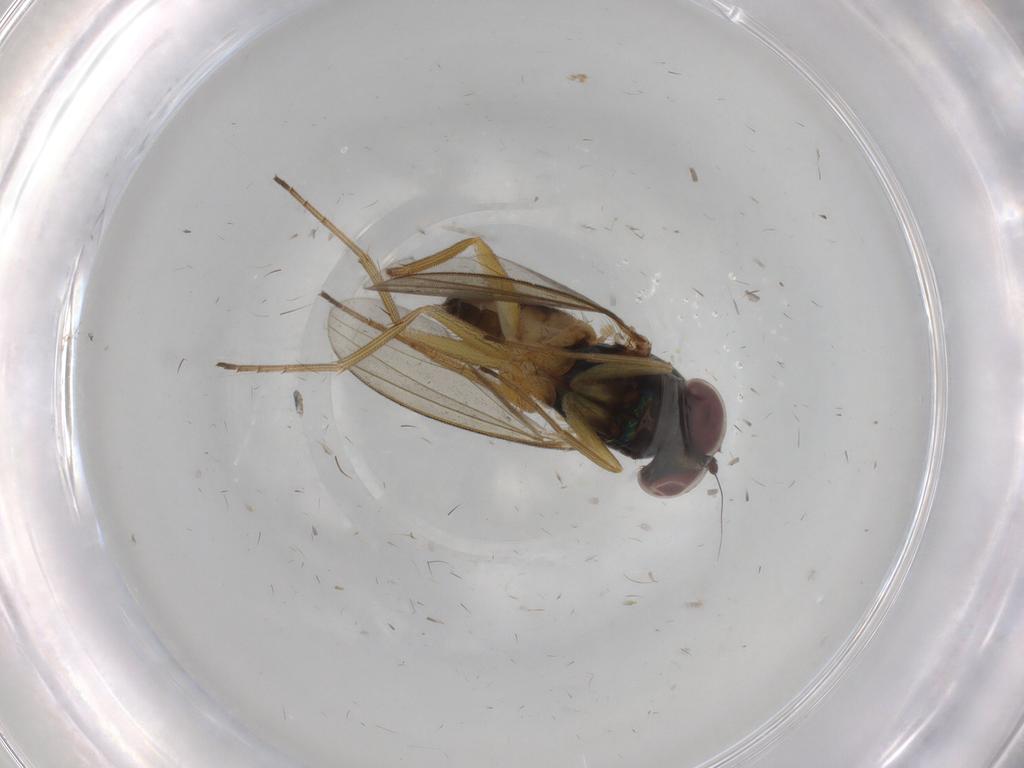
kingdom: Animalia
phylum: Arthropoda
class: Insecta
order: Diptera
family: Dolichopodidae
